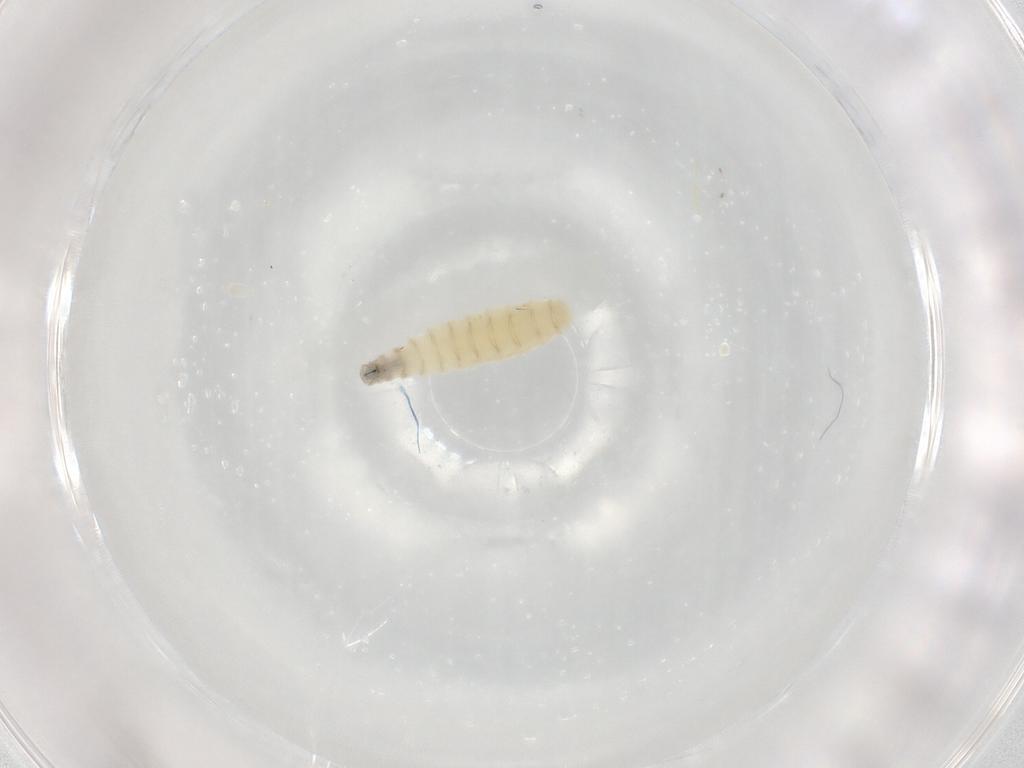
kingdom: Animalia
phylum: Arthropoda
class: Insecta
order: Diptera
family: Sarcophagidae
